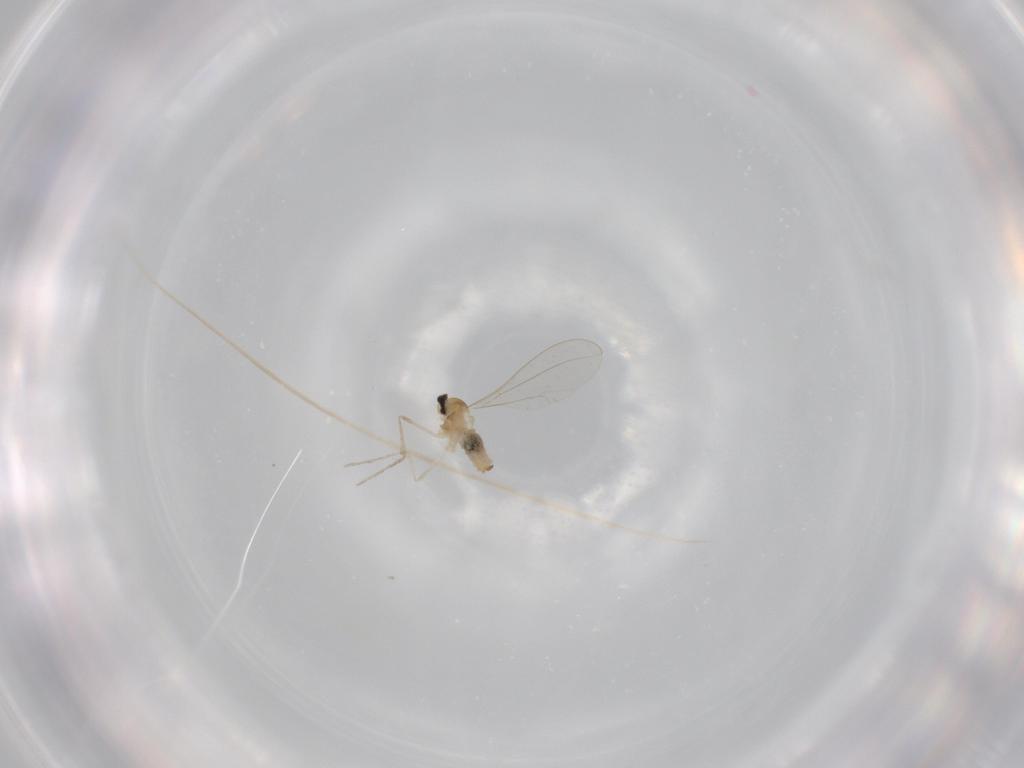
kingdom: Animalia
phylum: Arthropoda
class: Insecta
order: Diptera
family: Cecidomyiidae
